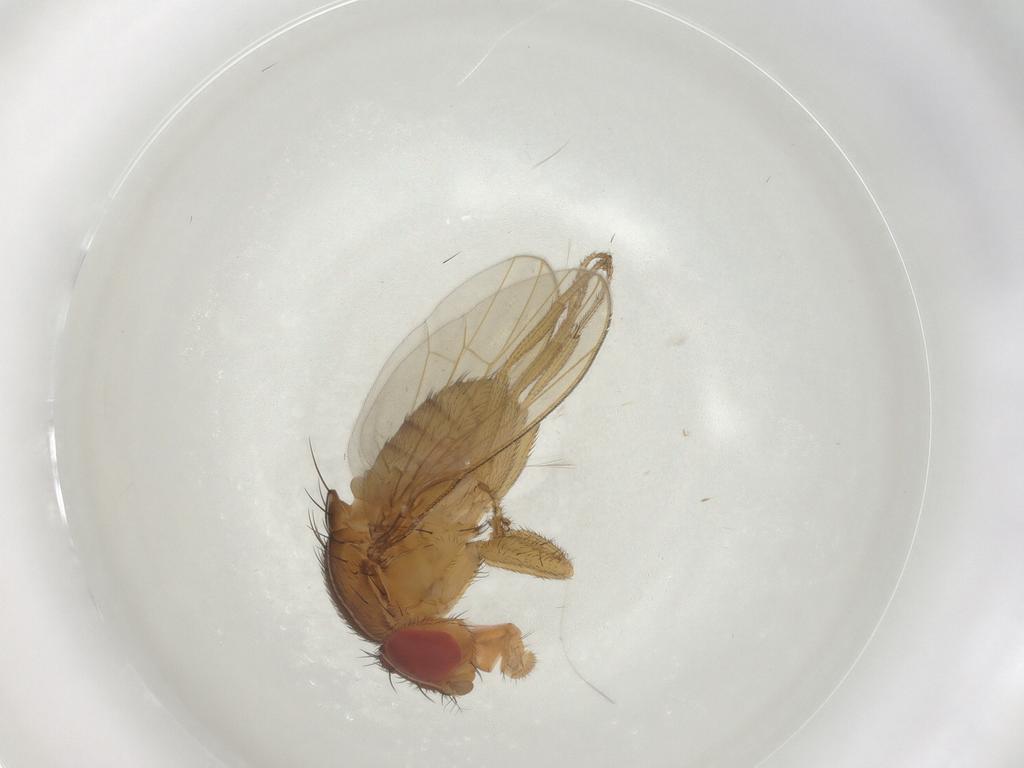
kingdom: Animalia
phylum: Arthropoda
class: Insecta
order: Diptera
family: Drosophilidae
